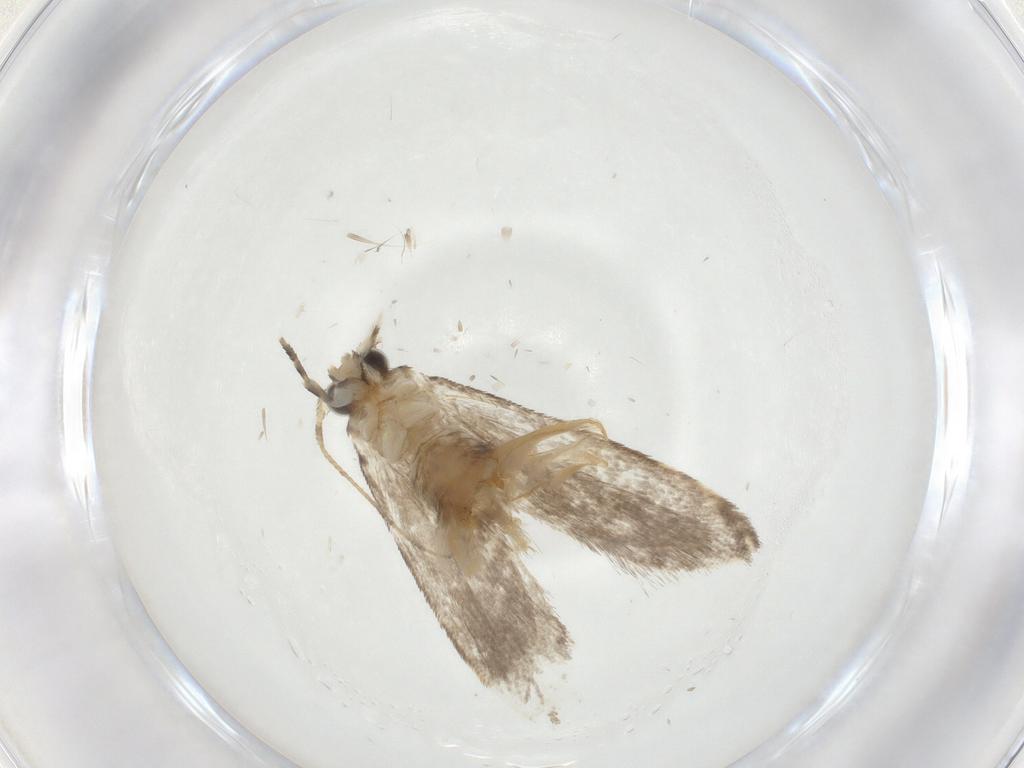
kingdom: Animalia
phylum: Arthropoda
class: Insecta
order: Lepidoptera
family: Tineidae
